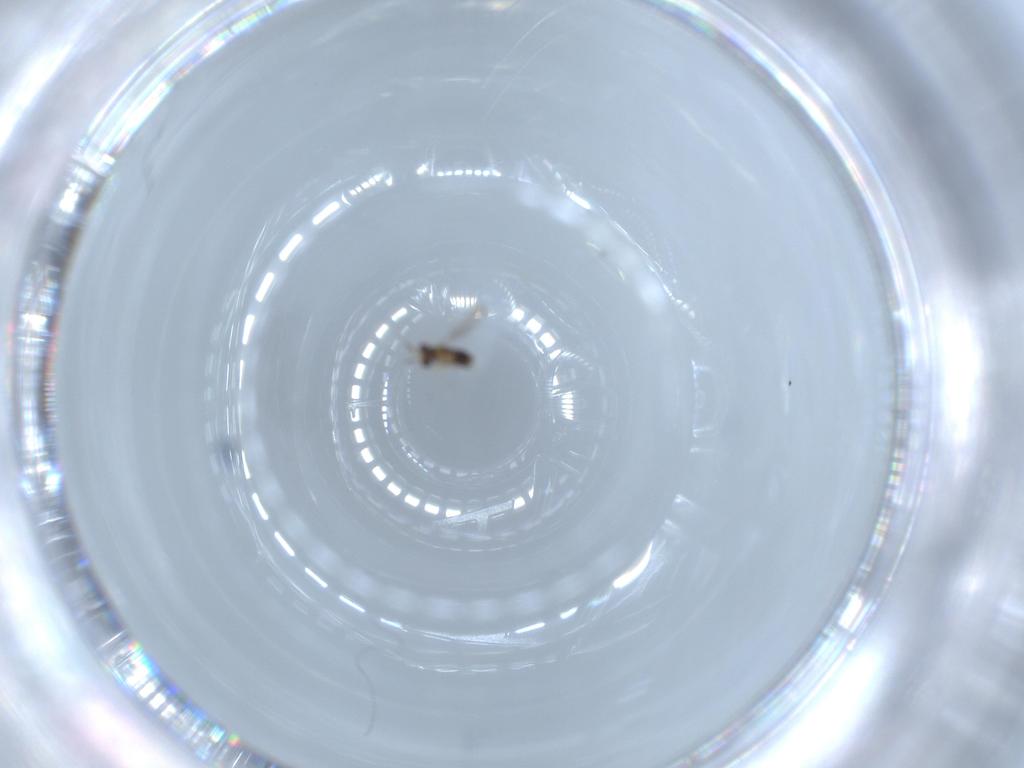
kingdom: Animalia
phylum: Arthropoda
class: Insecta
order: Hymenoptera
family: Aphelinidae
